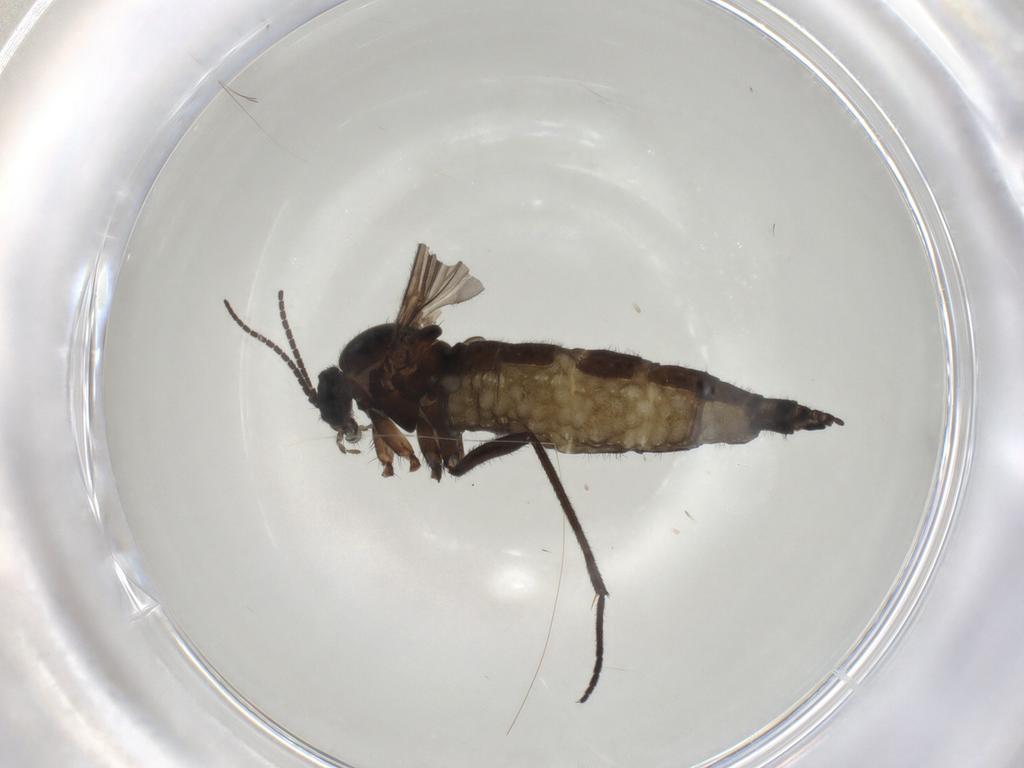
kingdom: Animalia
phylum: Arthropoda
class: Insecta
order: Diptera
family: Sciaridae
